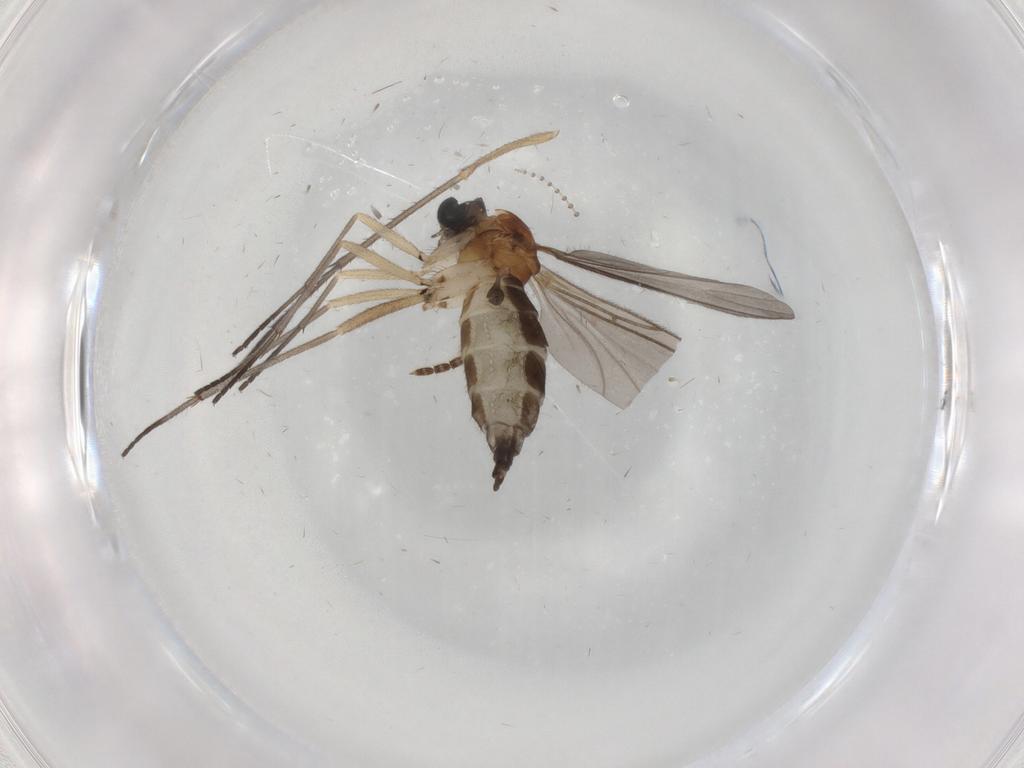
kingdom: Animalia
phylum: Arthropoda
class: Insecta
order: Diptera
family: Sciaridae
